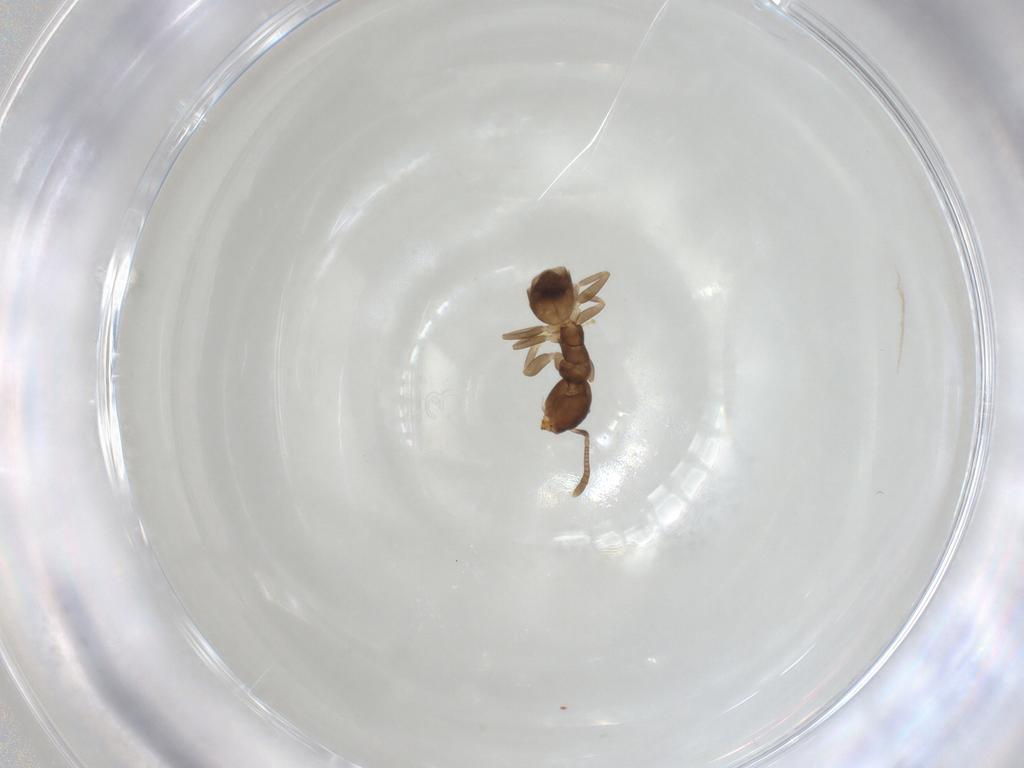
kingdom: Animalia
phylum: Arthropoda
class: Insecta
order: Hymenoptera
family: Formicidae
